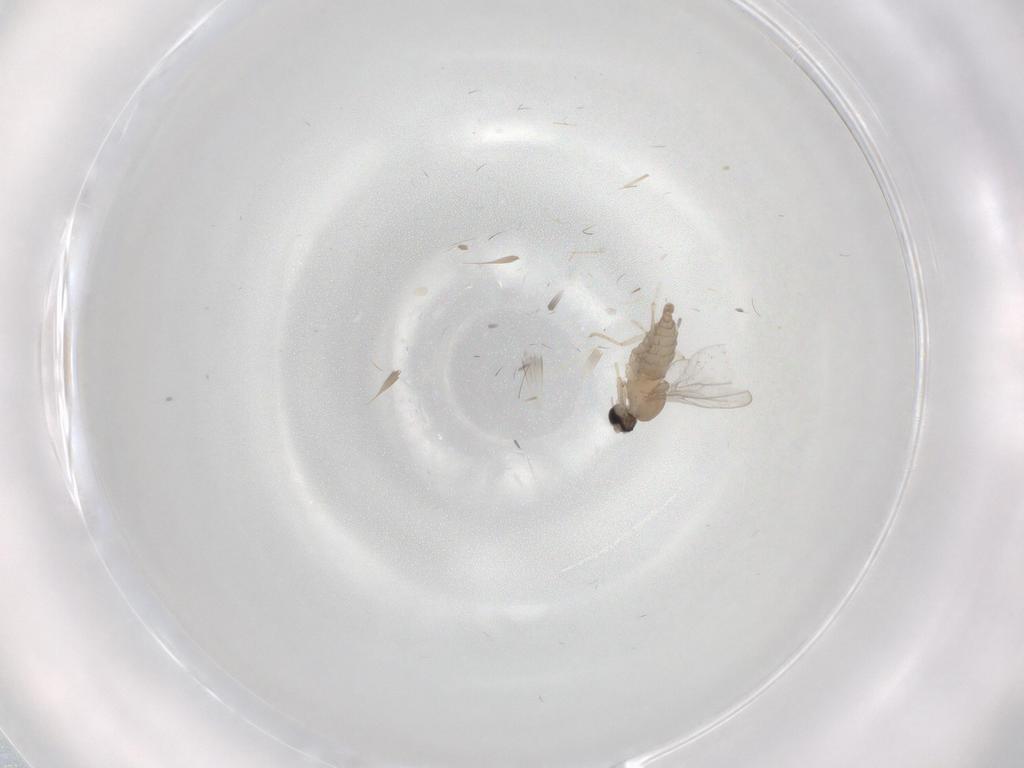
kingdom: Animalia
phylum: Arthropoda
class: Insecta
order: Diptera
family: Cecidomyiidae
